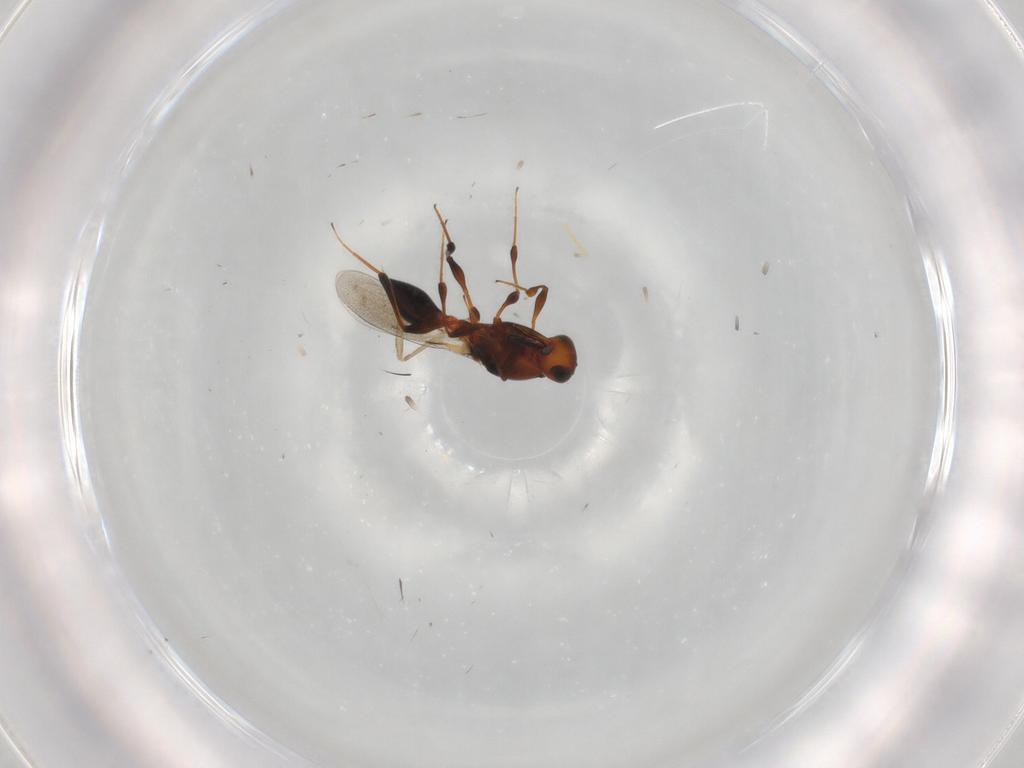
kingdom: Animalia
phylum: Arthropoda
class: Insecta
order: Hymenoptera
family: Platygastridae
